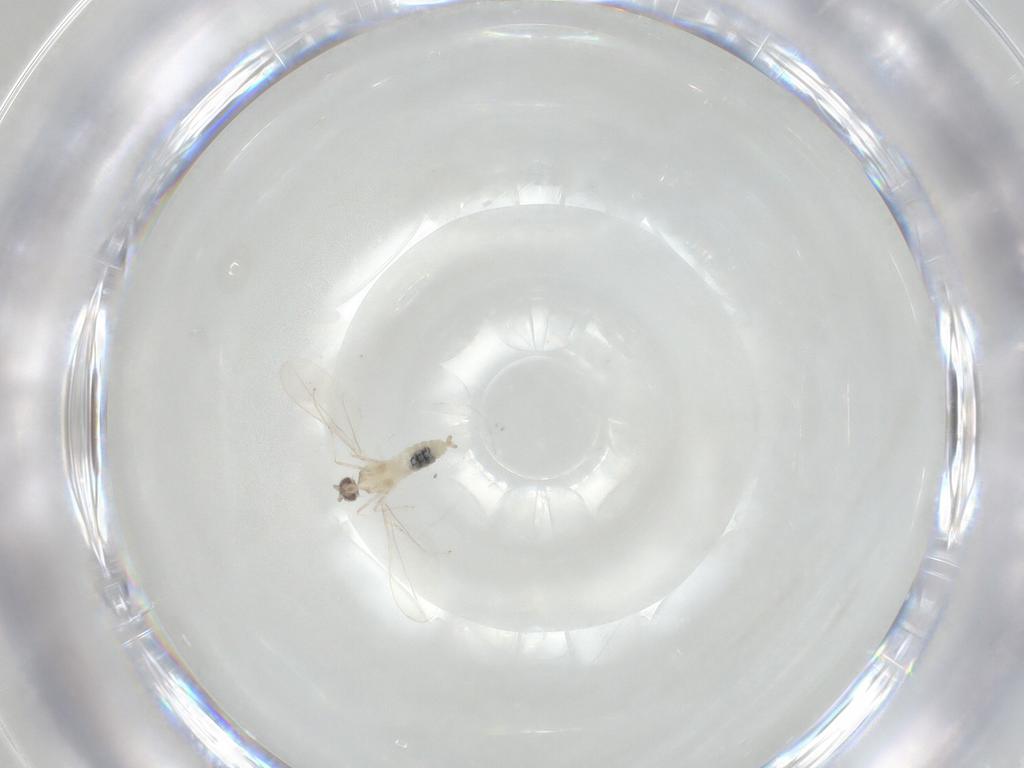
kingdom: Animalia
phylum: Arthropoda
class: Insecta
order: Diptera
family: Cecidomyiidae
